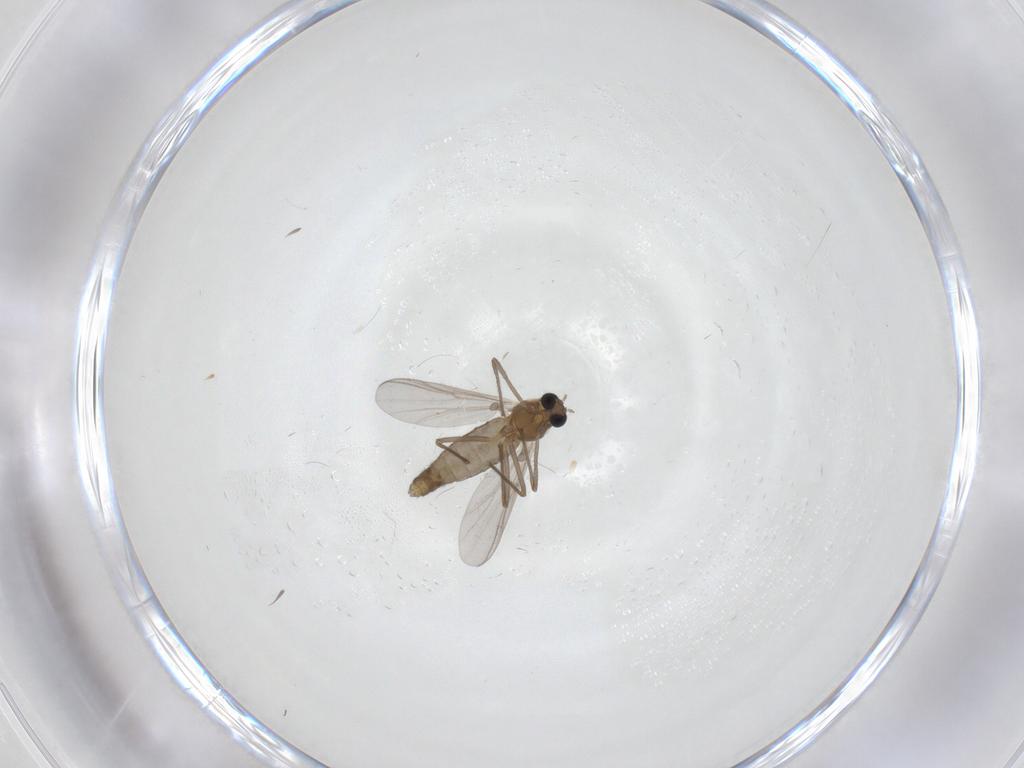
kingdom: Animalia
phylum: Arthropoda
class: Insecta
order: Diptera
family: Chironomidae
